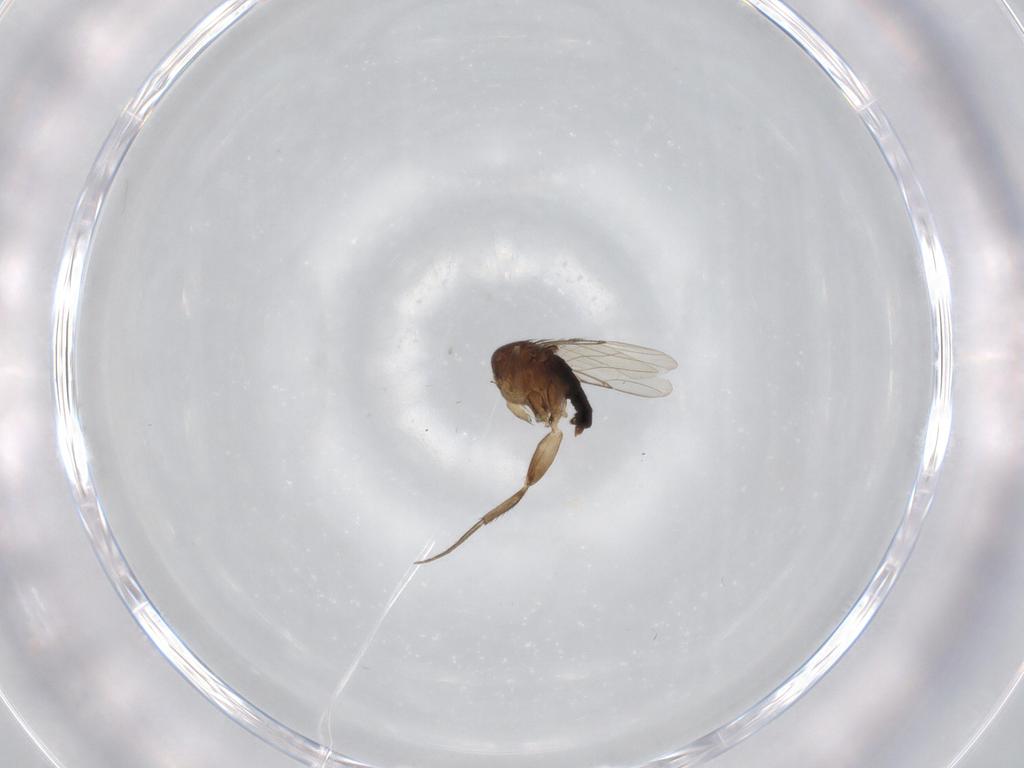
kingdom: Animalia
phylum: Arthropoda
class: Insecta
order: Diptera
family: Phoridae
